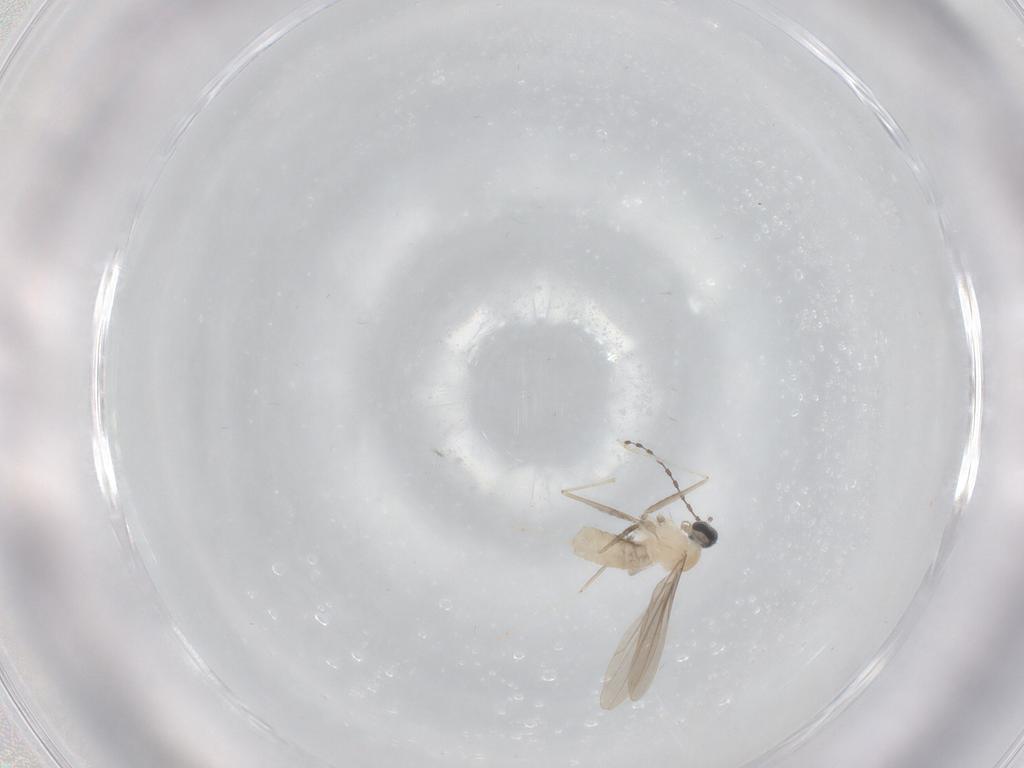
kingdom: Animalia
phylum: Arthropoda
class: Insecta
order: Diptera
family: Cecidomyiidae
